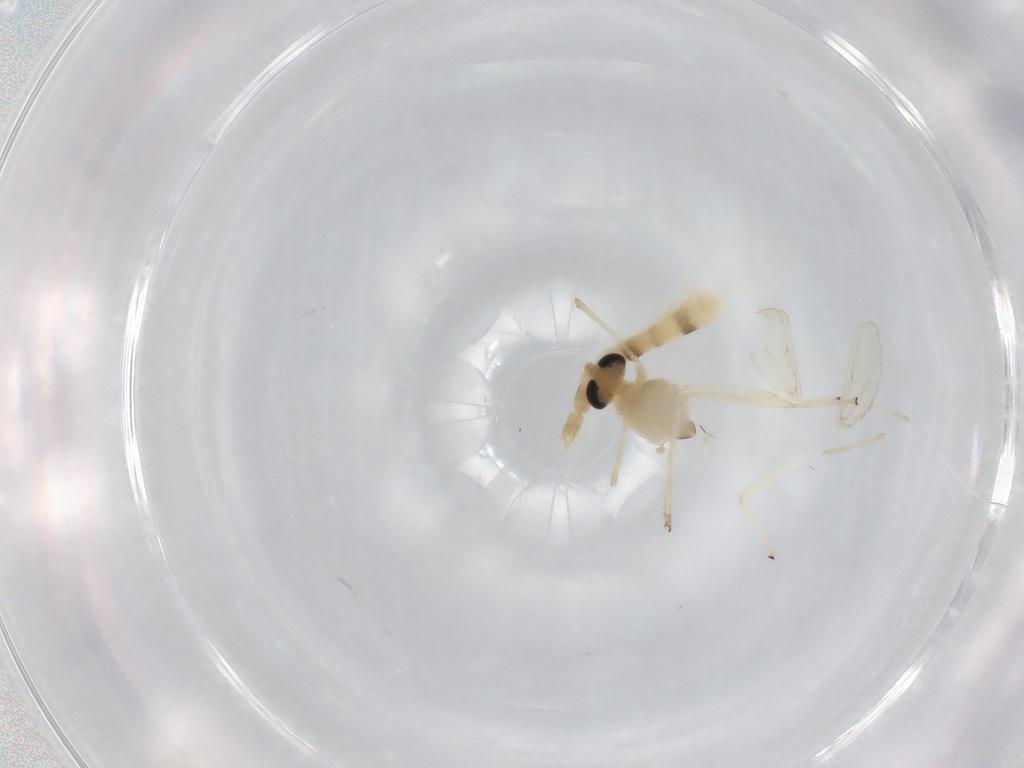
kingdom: Animalia
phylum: Arthropoda
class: Insecta
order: Diptera
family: Chironomidae
